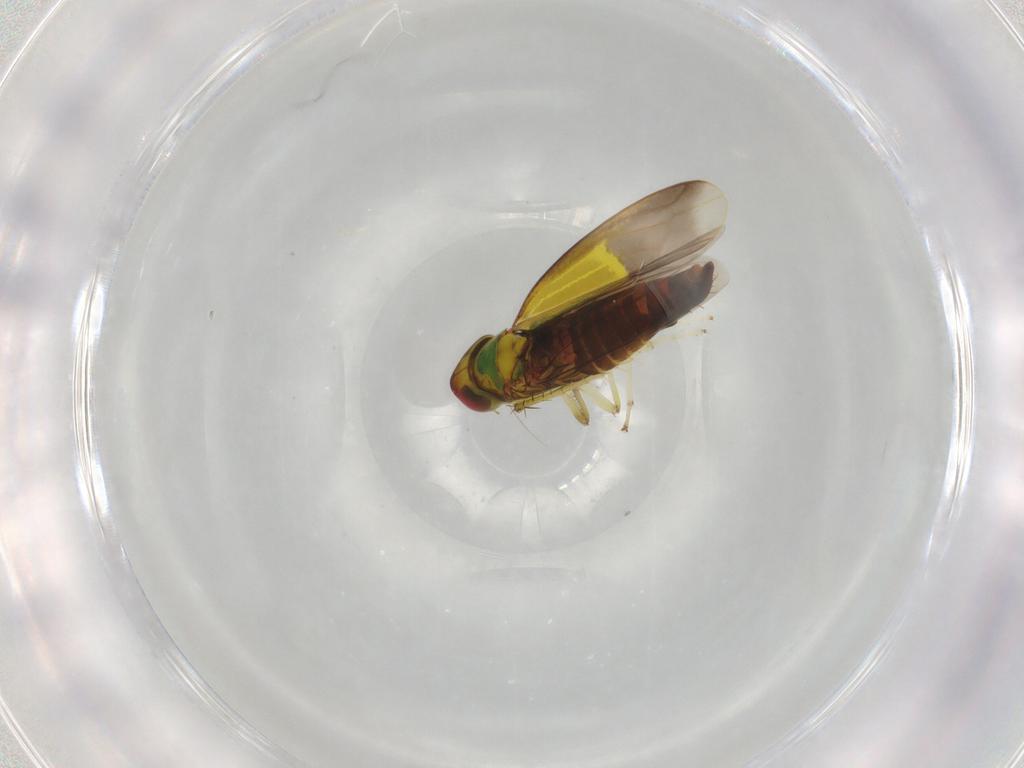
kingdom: Animalia
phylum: Arthropoda
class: Insecta
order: Hemiptera
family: Cicadellidae
